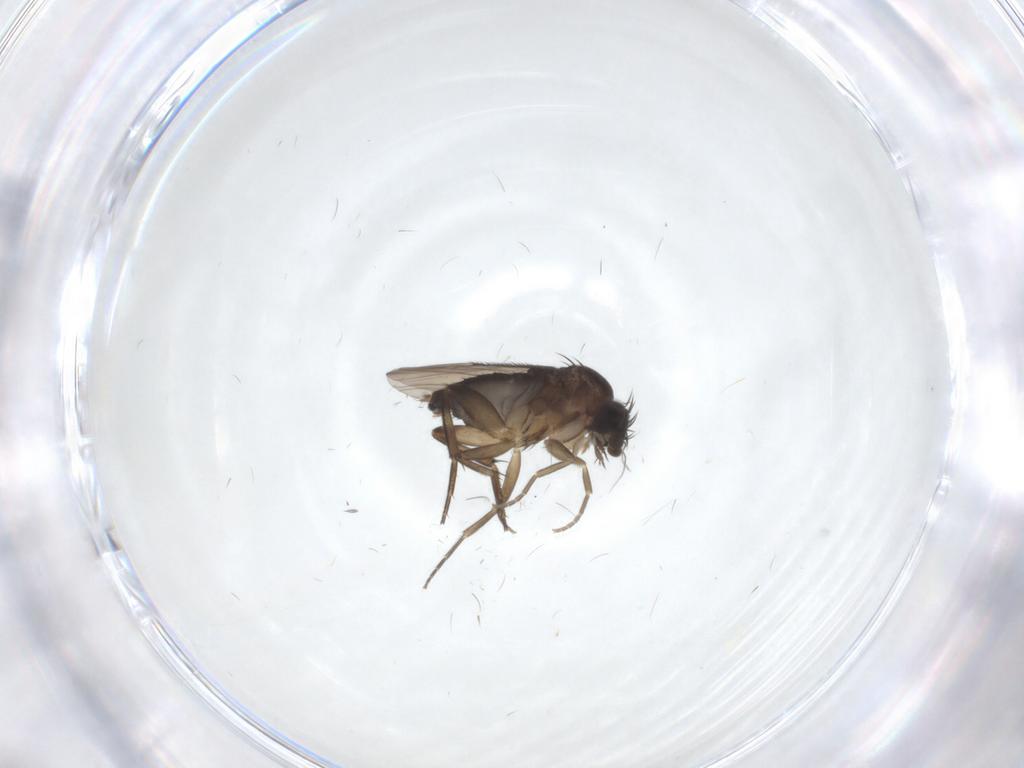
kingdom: Animalia
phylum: Arthropoda
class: Insecta
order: Diptera
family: Phoridae
